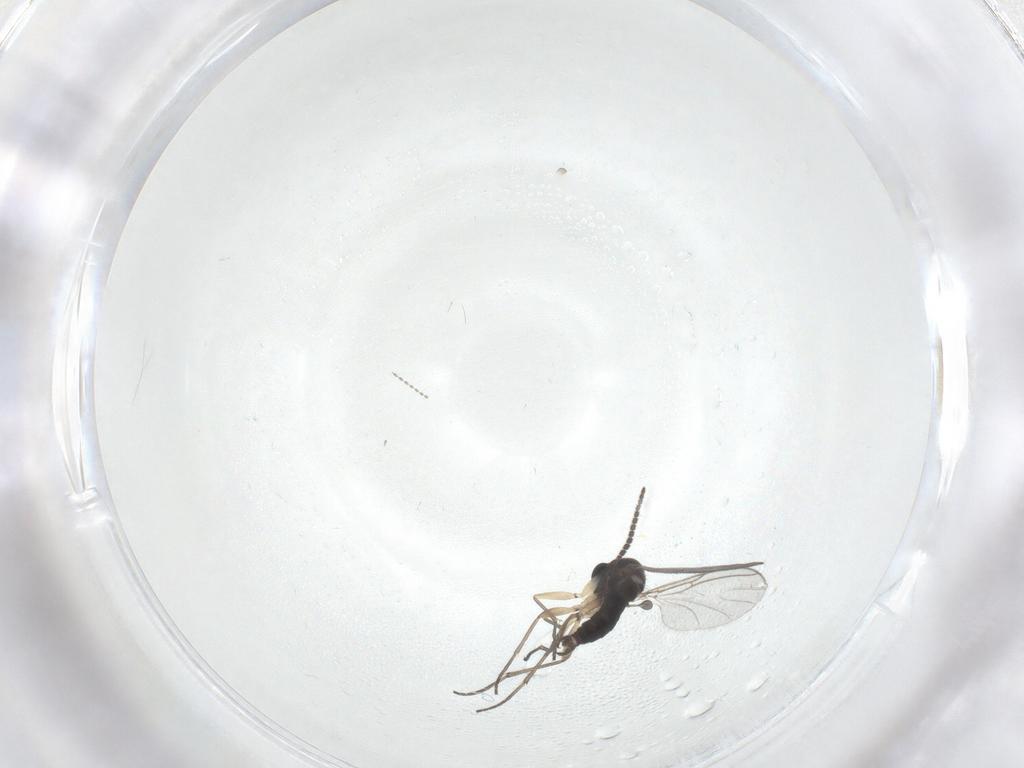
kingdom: Animalia
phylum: Arthropoda
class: Insecta
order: Diptera
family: Sciaridae
